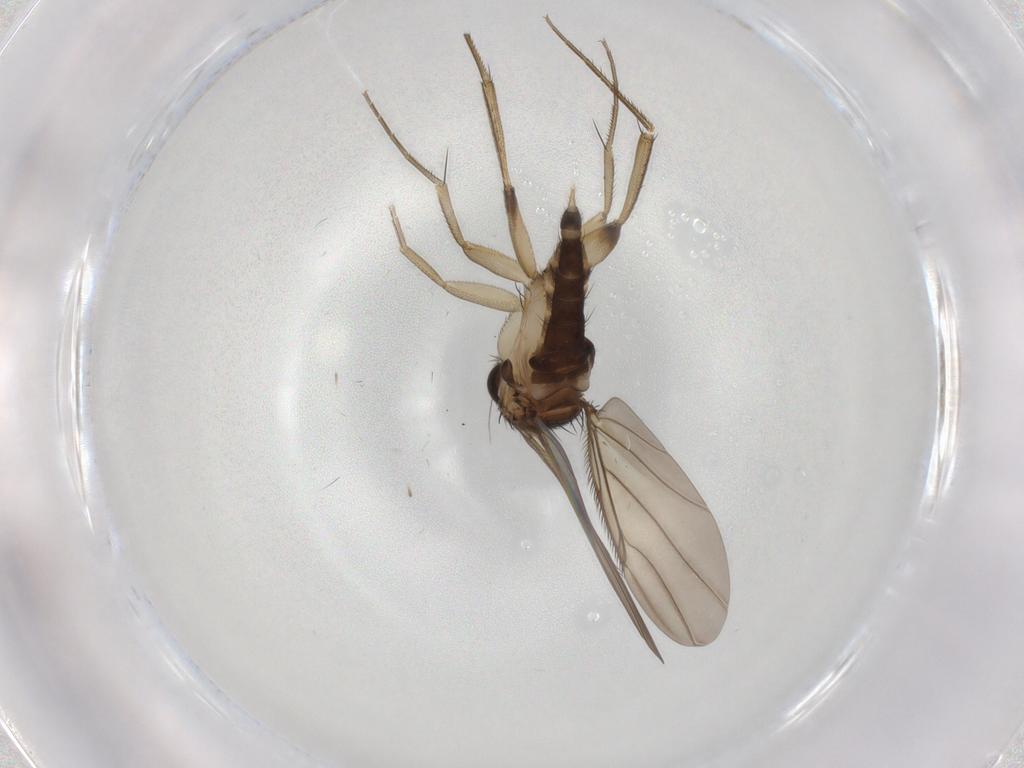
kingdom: Animalia
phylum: Arthropoda
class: Insecta
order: Diptera
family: Phoridae
